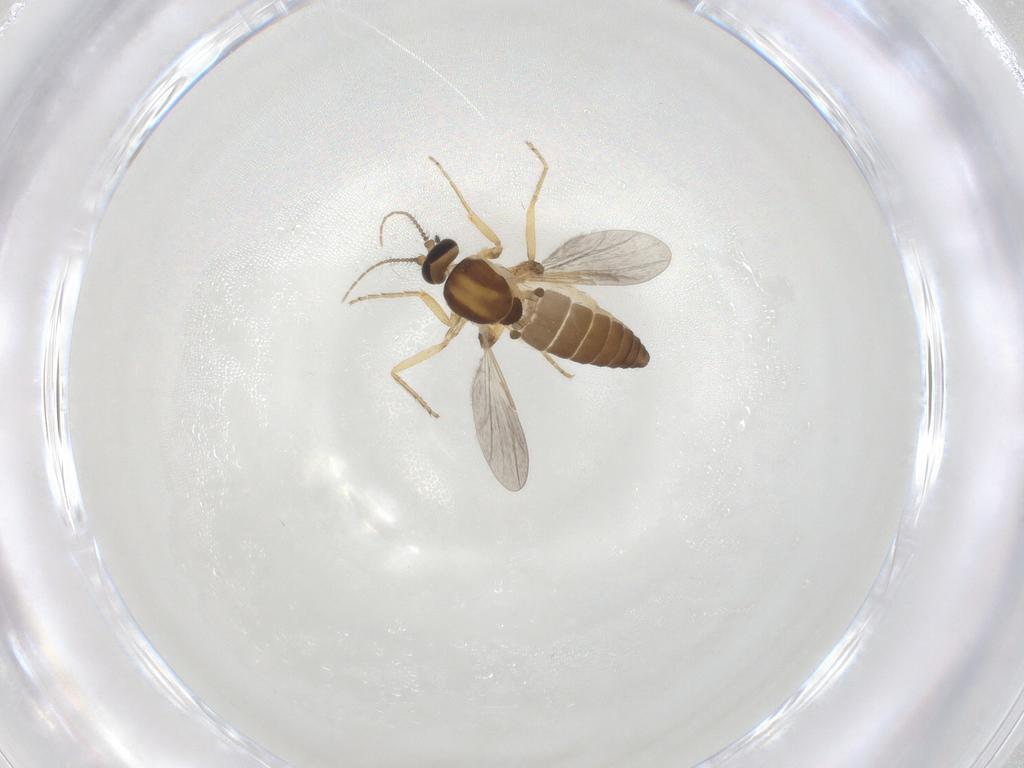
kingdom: Animalia
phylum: Arthropoda
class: Insecta
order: Diptera
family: Ceratopogonidae
